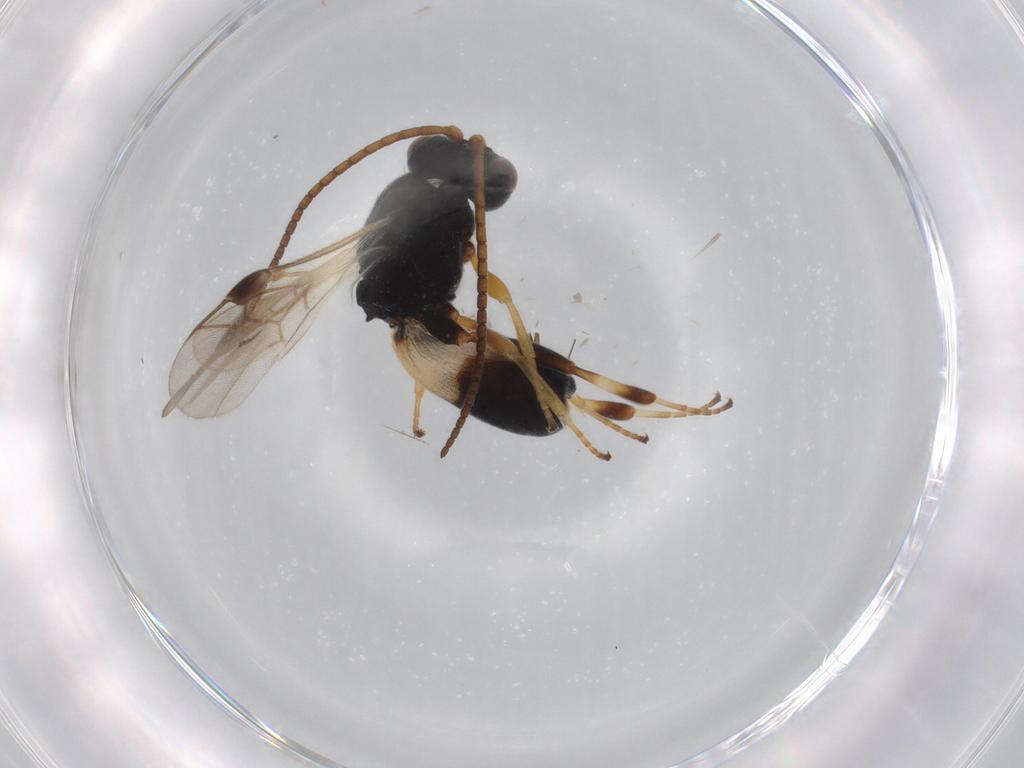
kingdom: Animalia
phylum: Arthropoda
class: Insecta
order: Hymenoptera
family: Braconidae
